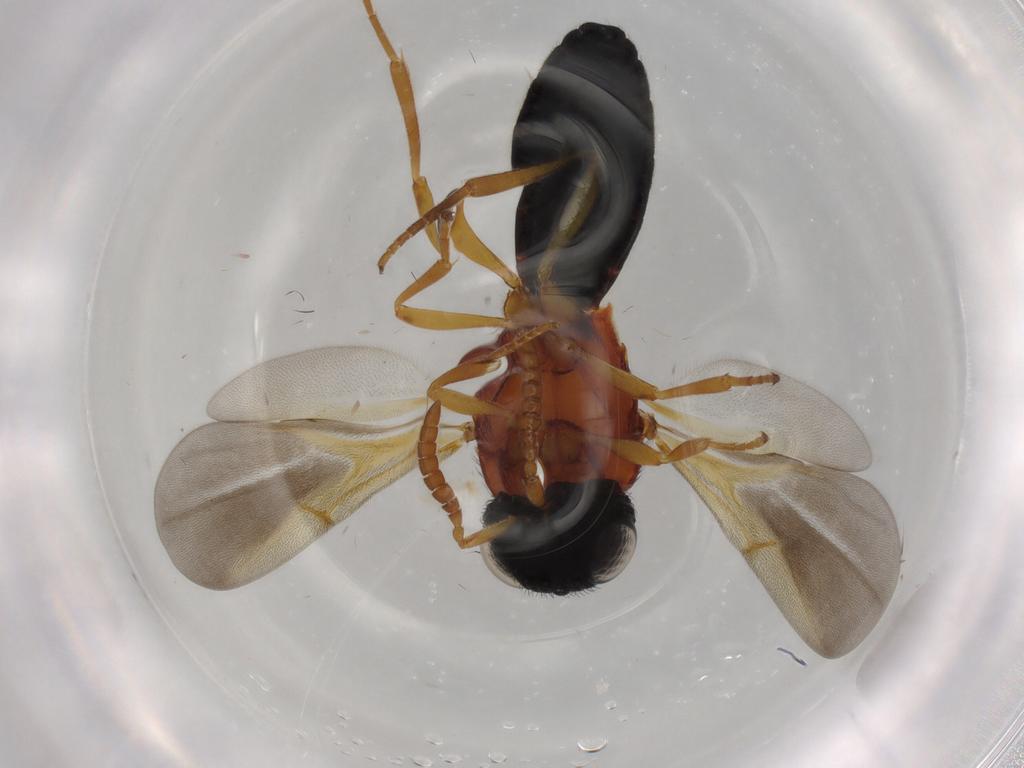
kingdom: Animalia
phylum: Arthropoda
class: Insecta
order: Hymenoptera
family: Scelionidae
